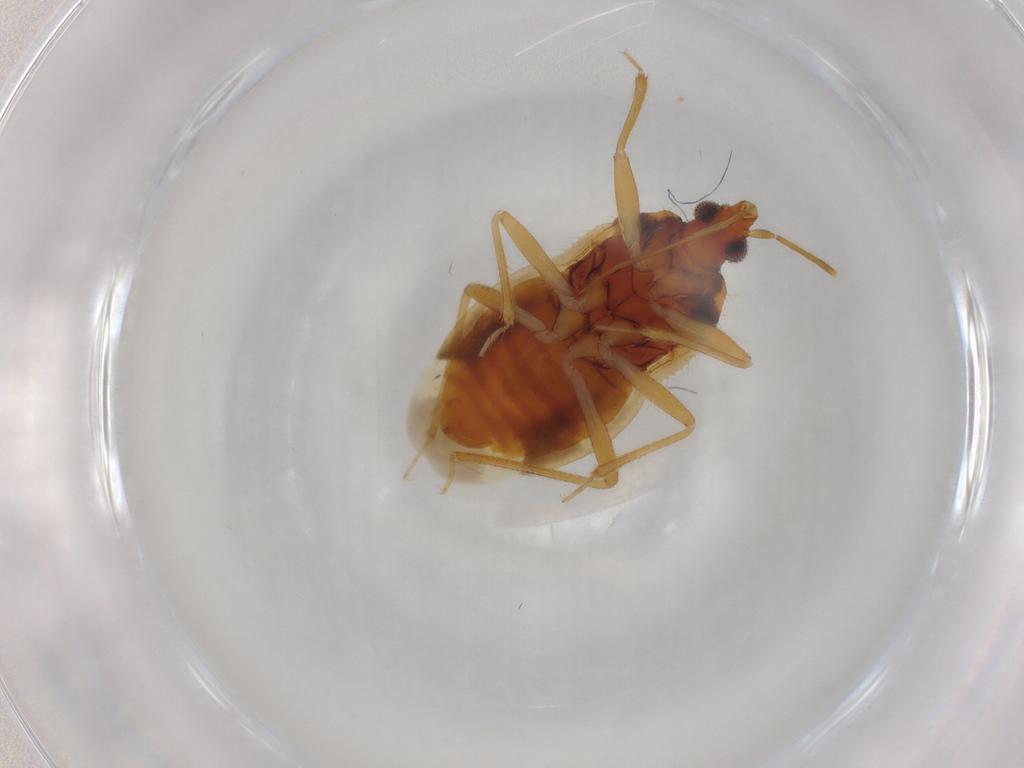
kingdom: Animalia
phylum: Arthropoda
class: Insecta
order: Hemiptera
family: Anthocoridae
